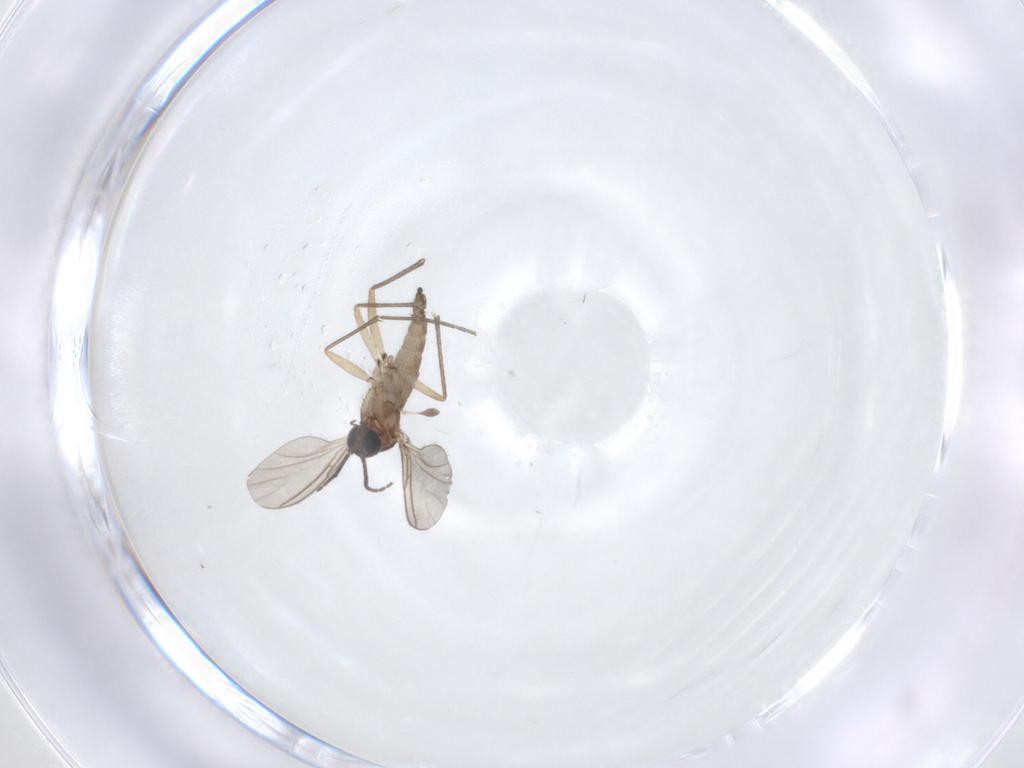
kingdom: Animalia
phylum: Arthropoda
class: Insecta
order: Diptera
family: Sciaridae
